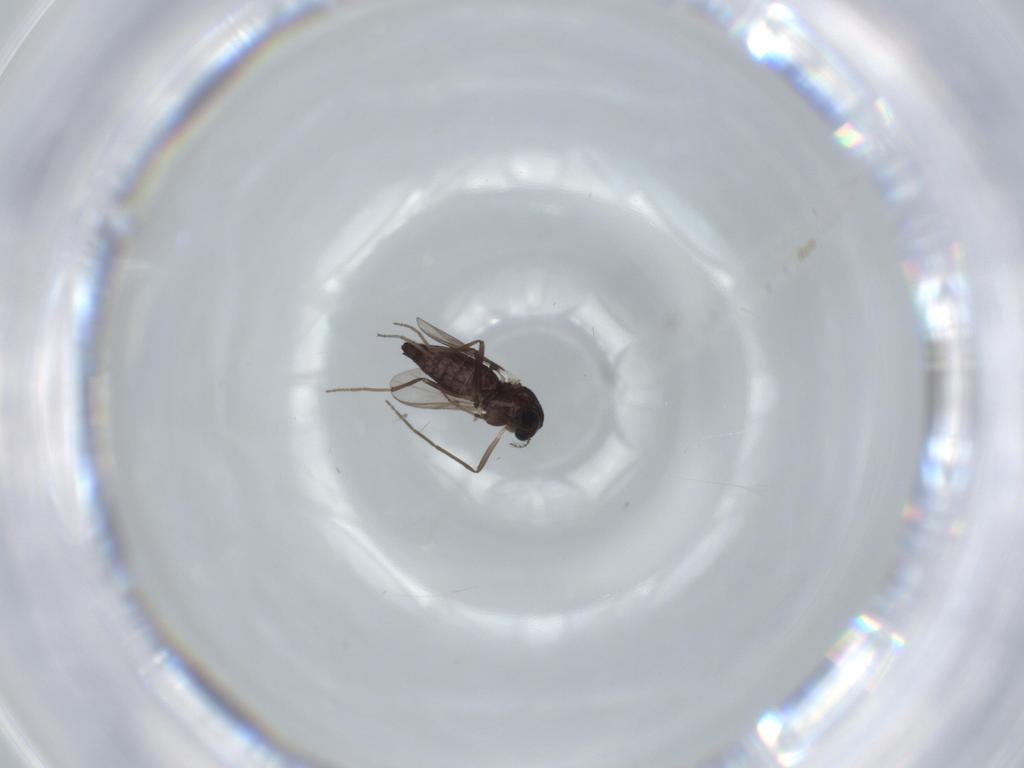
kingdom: Animalia
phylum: Arthropoda
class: Insecta
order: Diptera
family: Chironomidae
